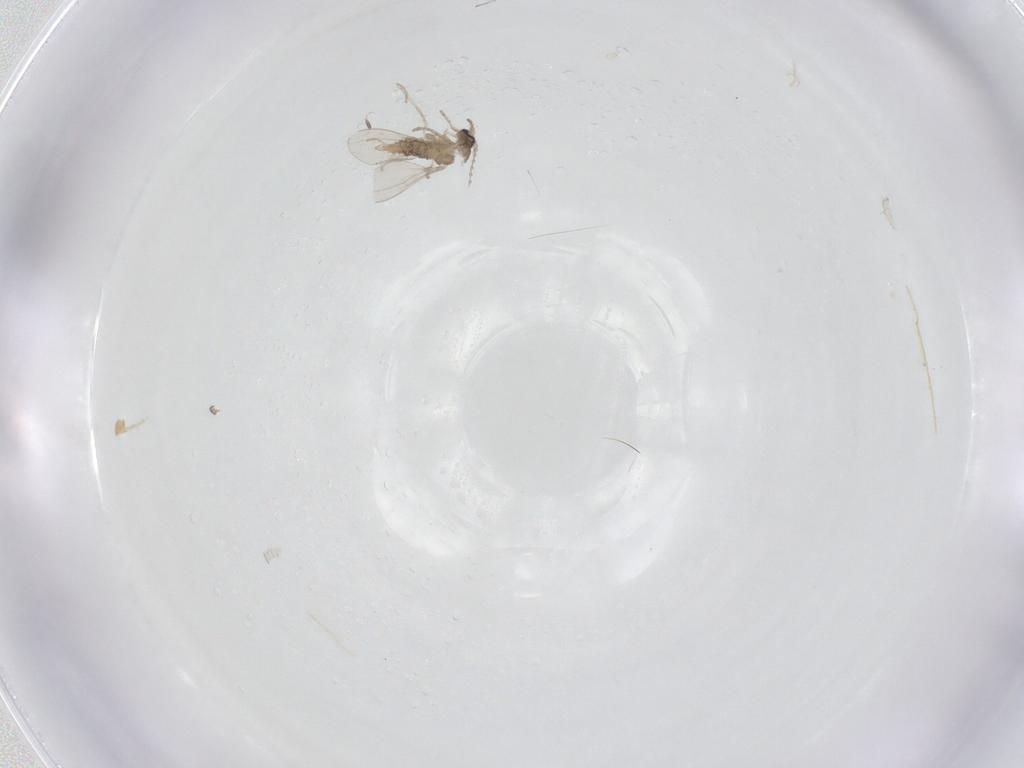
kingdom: Animalia
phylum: Arthropoda
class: Insecta
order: Diptera
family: Cecidomyiidae
